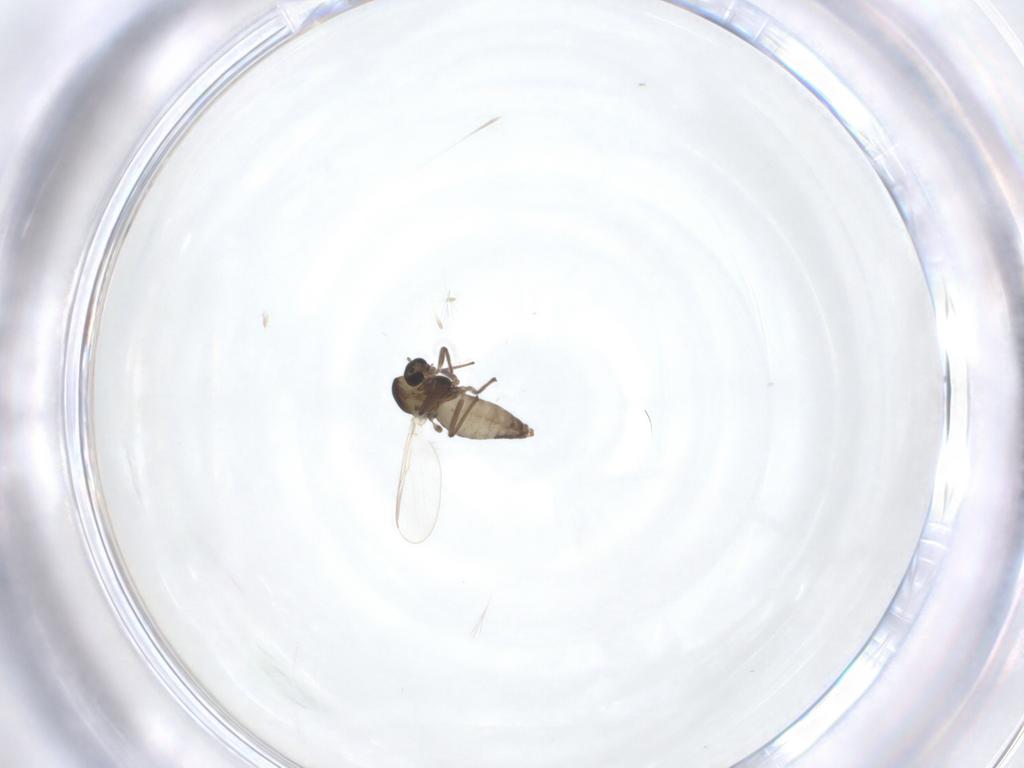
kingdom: Animalia
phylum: Arthropoda
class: Insecta
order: Diptera
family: Chironomidae
